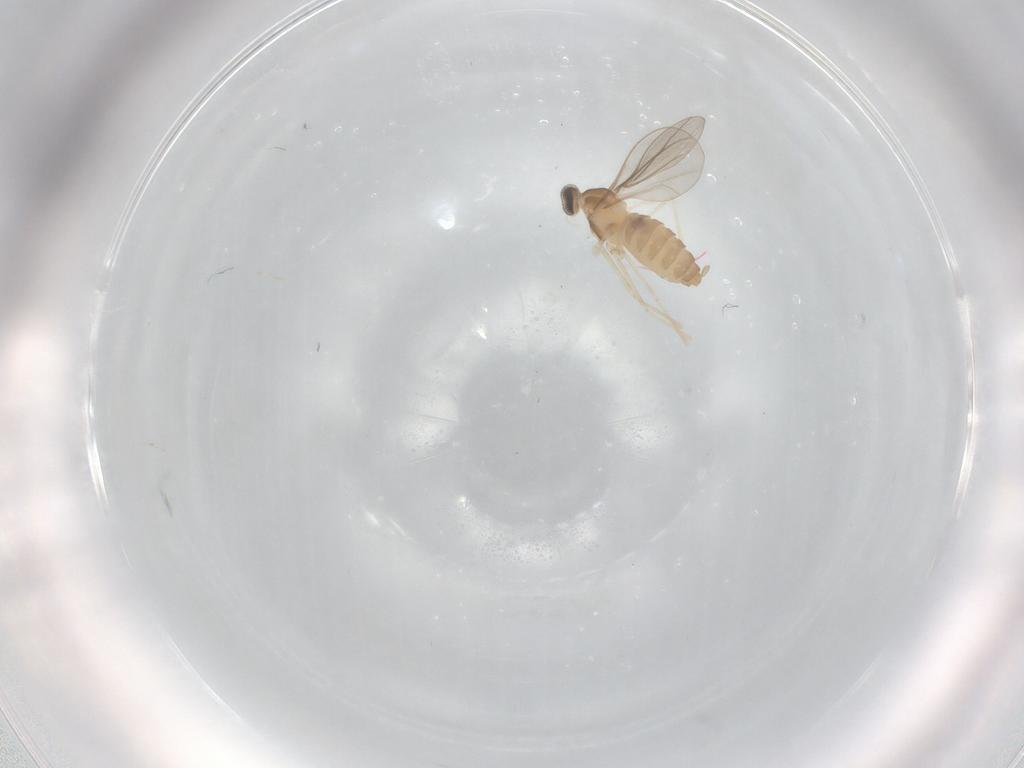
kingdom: Animalia
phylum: Arthropoda
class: Insecta
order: Diptera
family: Cecidomyiidae
